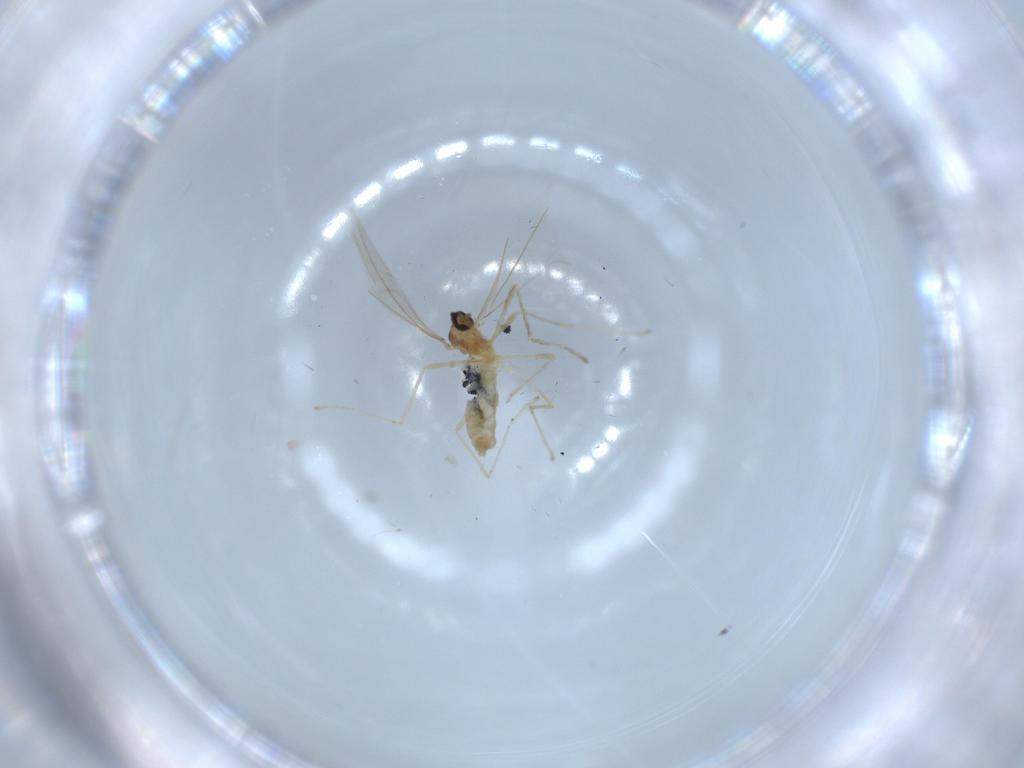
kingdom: Animalia
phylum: Arthropoda
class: Insecta
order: Diptera
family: Cecidomyiidae
